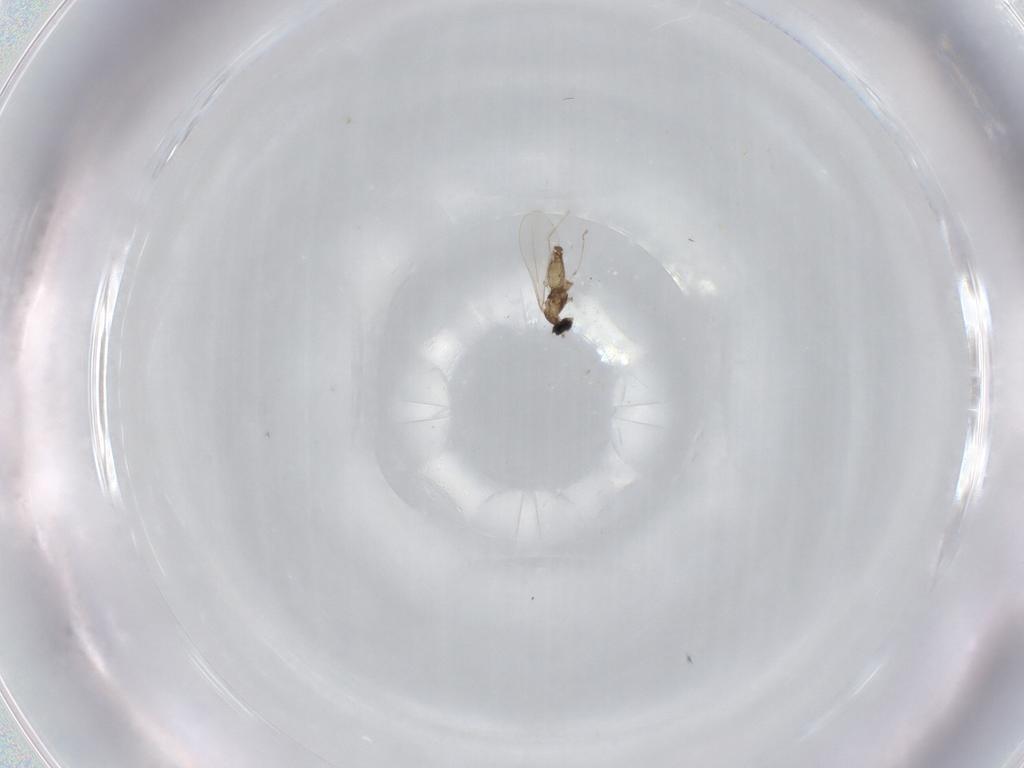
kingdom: Animalia
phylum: Arthropoda
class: Insecta
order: Diptera
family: Cecidomyiidae
